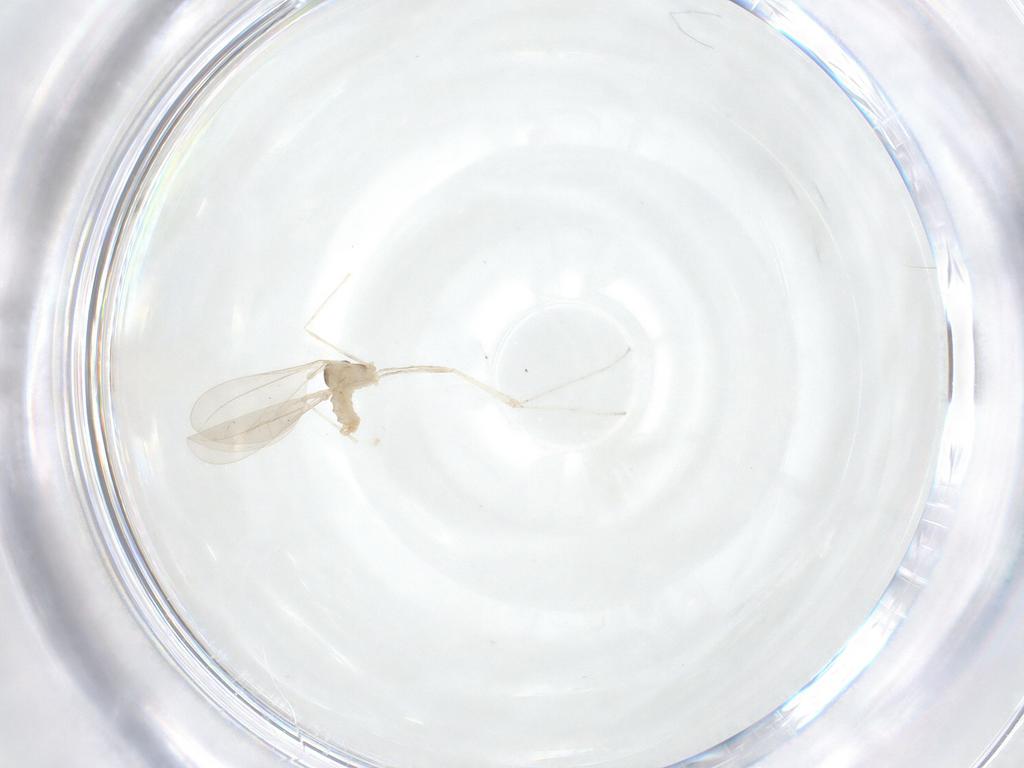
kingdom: Animalia
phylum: Arthropoda
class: Insecta
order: Diptera
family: Cecidomyiidae
